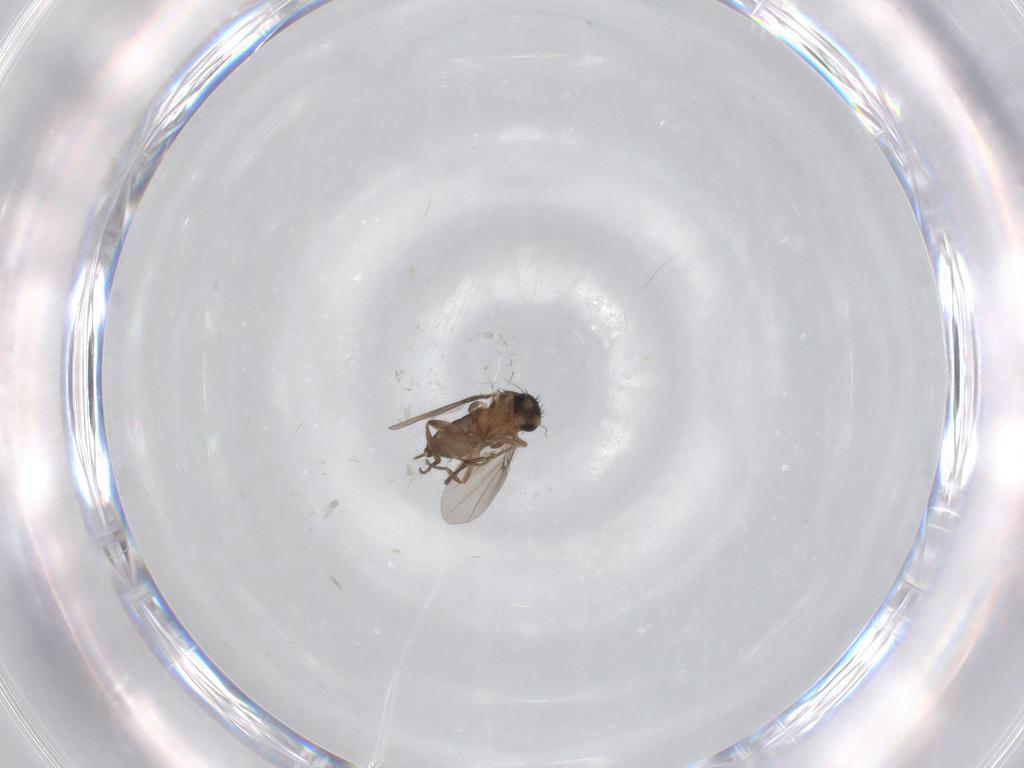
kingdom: Animalia
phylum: Arthropoda
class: Insecta
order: Diptera
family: Phoridae
